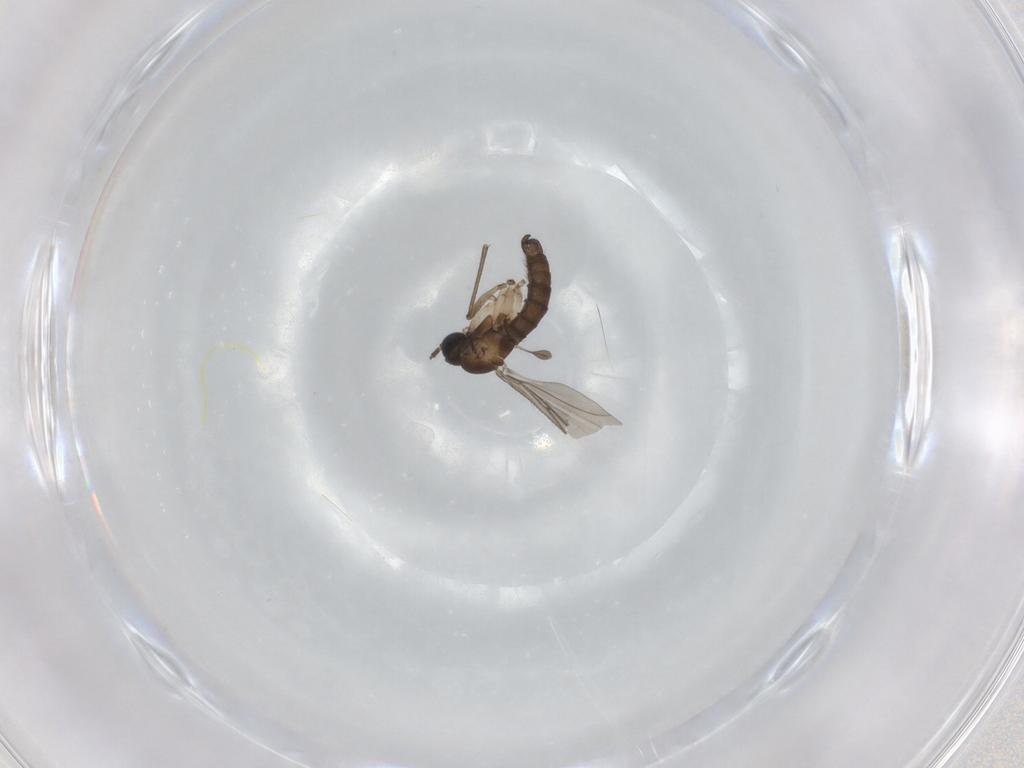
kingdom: Animalia
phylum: Arthropoda
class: Insecta
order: Diptera
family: Sciaridae
